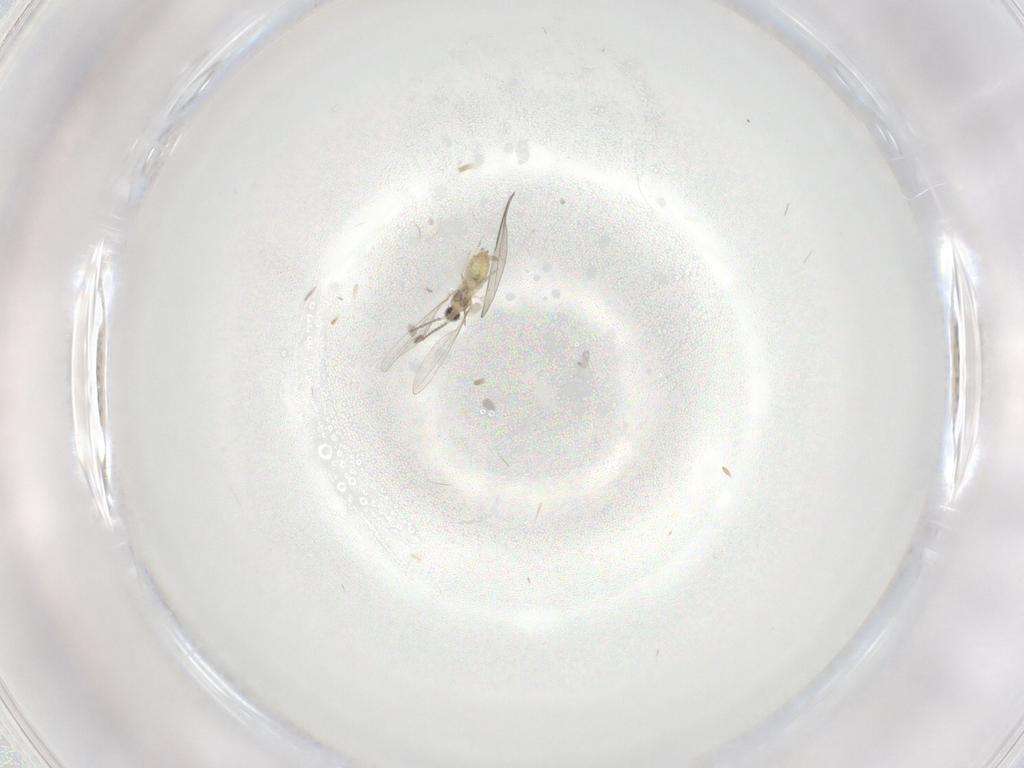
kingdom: Animalia
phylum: Arthropoda
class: Insecta
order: Diptera
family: Cecidomyiidae
